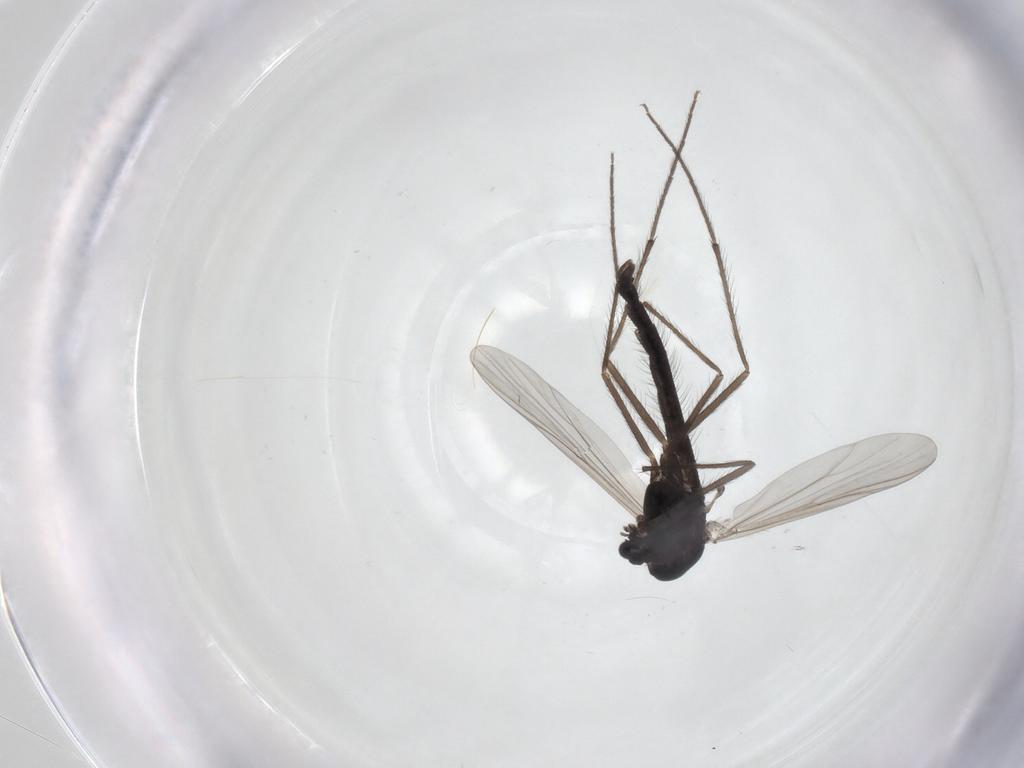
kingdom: Animalia
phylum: Arthropoda
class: Insecta
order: Diptera
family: Chironomidae
